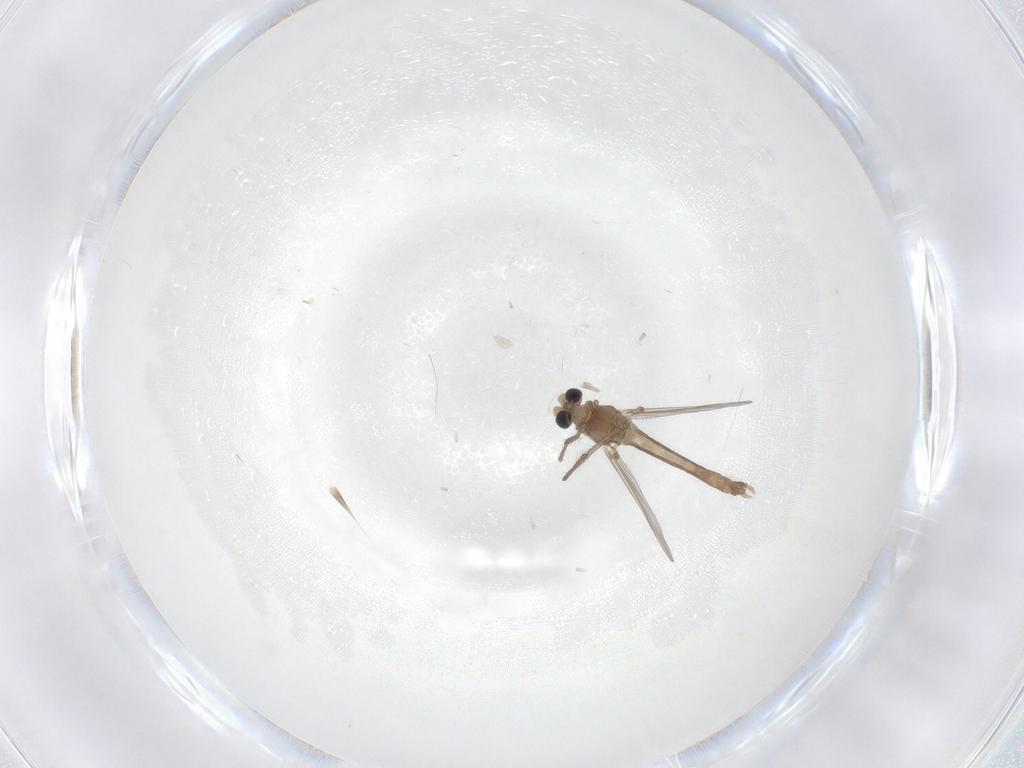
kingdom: Animalia
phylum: Arthropoda
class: Insecta
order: Diptera
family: Chironomidae
